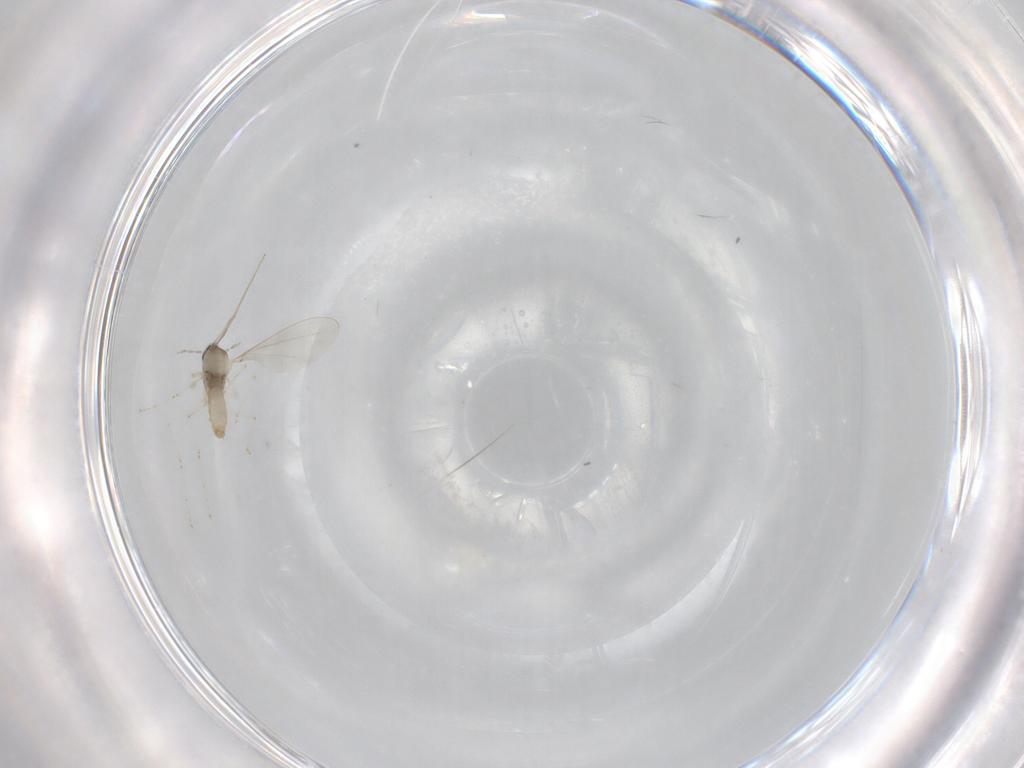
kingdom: Animalia
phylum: Arthropoda
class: Insecta
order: Diptera
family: Cecidomyiidae
